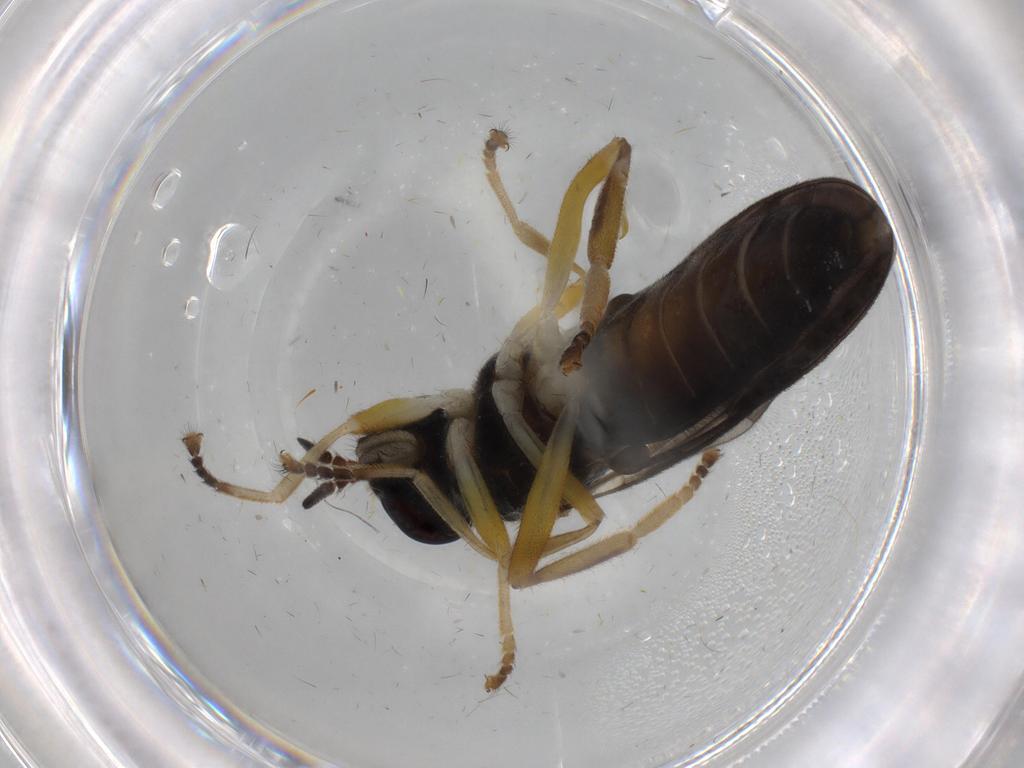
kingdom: Animalia
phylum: Arthropoda
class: Insecta
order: Diptera
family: Stratiomyidae
